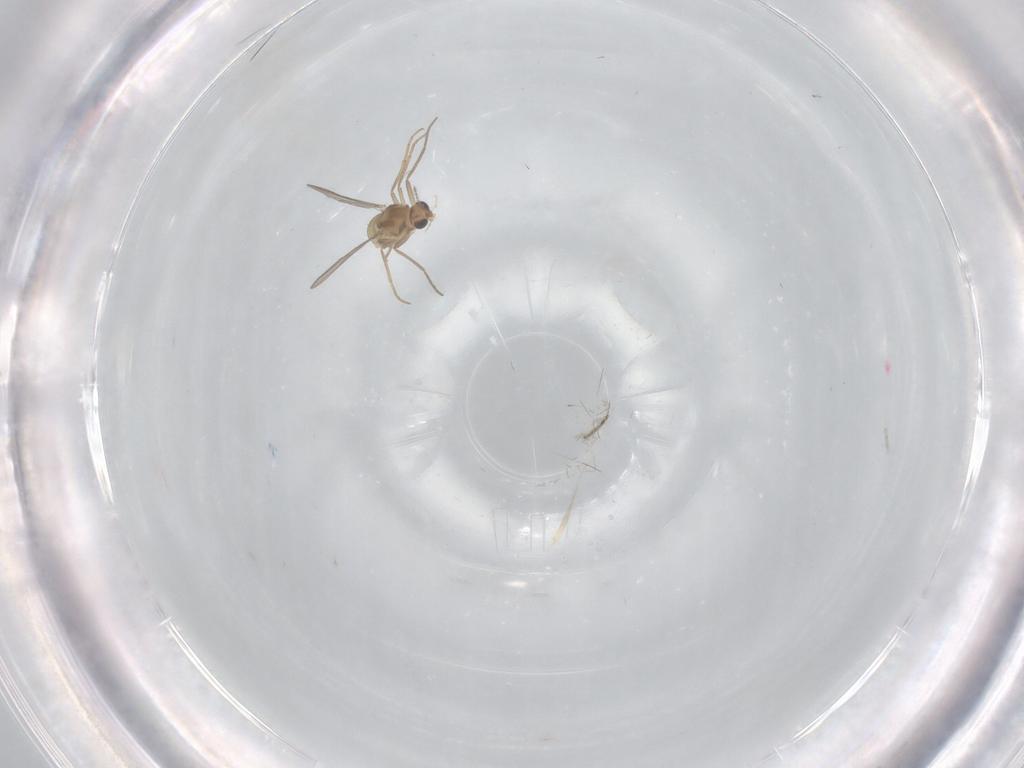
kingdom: Animalia
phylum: Arthropoda
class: Insecta
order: Diptera
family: Chironomidae
